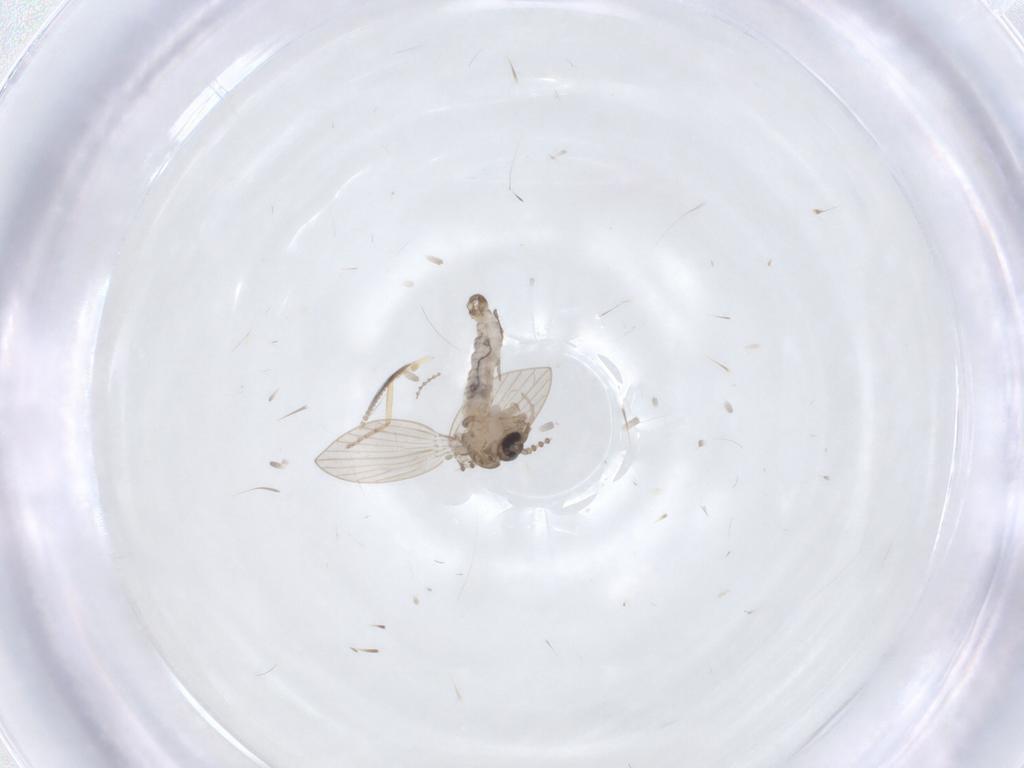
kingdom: Animalia
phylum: Arthropoda
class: Insecta
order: Diptera
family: Psychodidae
